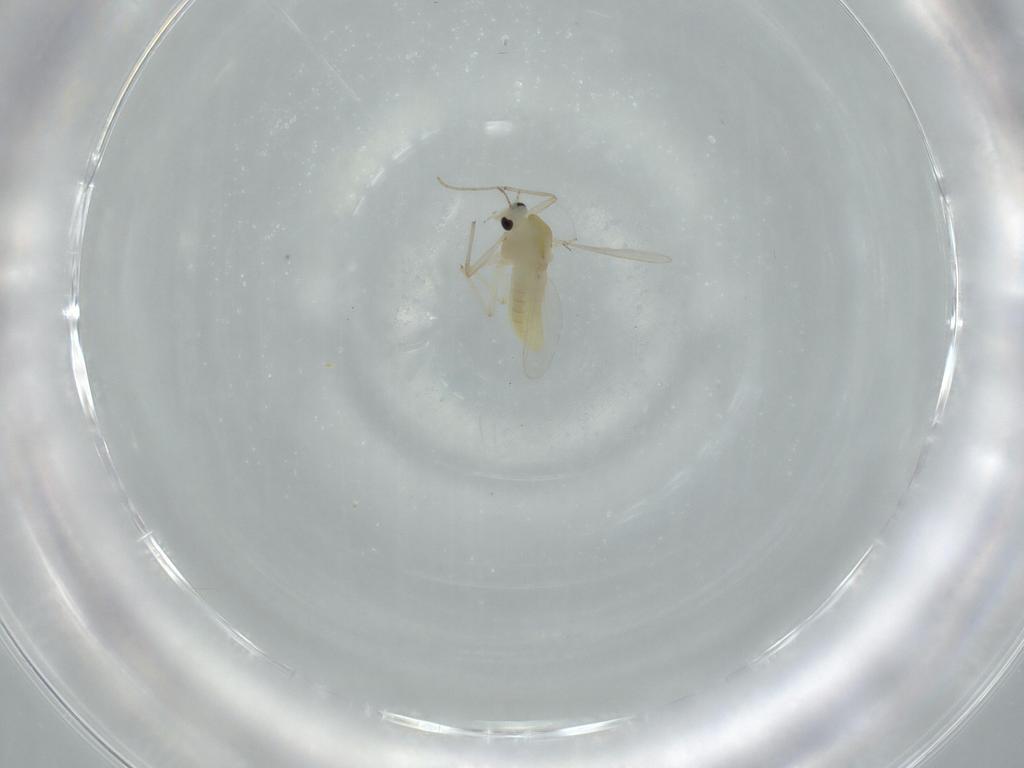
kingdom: Animalia
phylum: Arthropoda
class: Insecta
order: Diptera
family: Chironomidae
